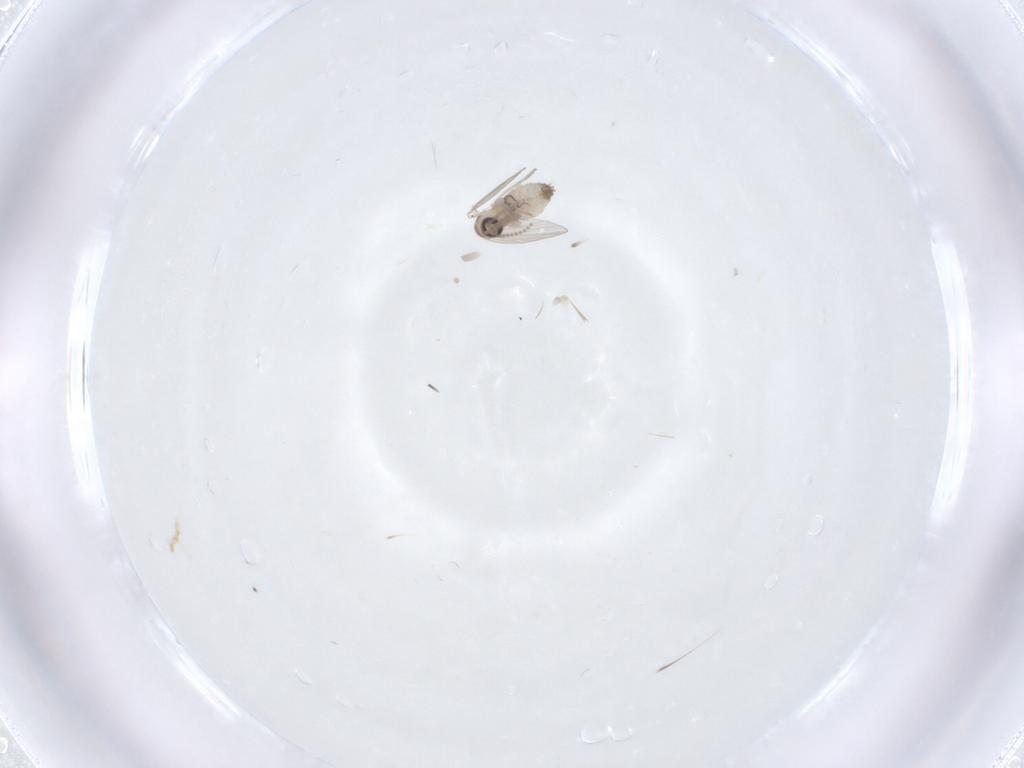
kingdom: Animalia
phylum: Arthropoda
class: Insecta
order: Diptera
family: Psychodidae
